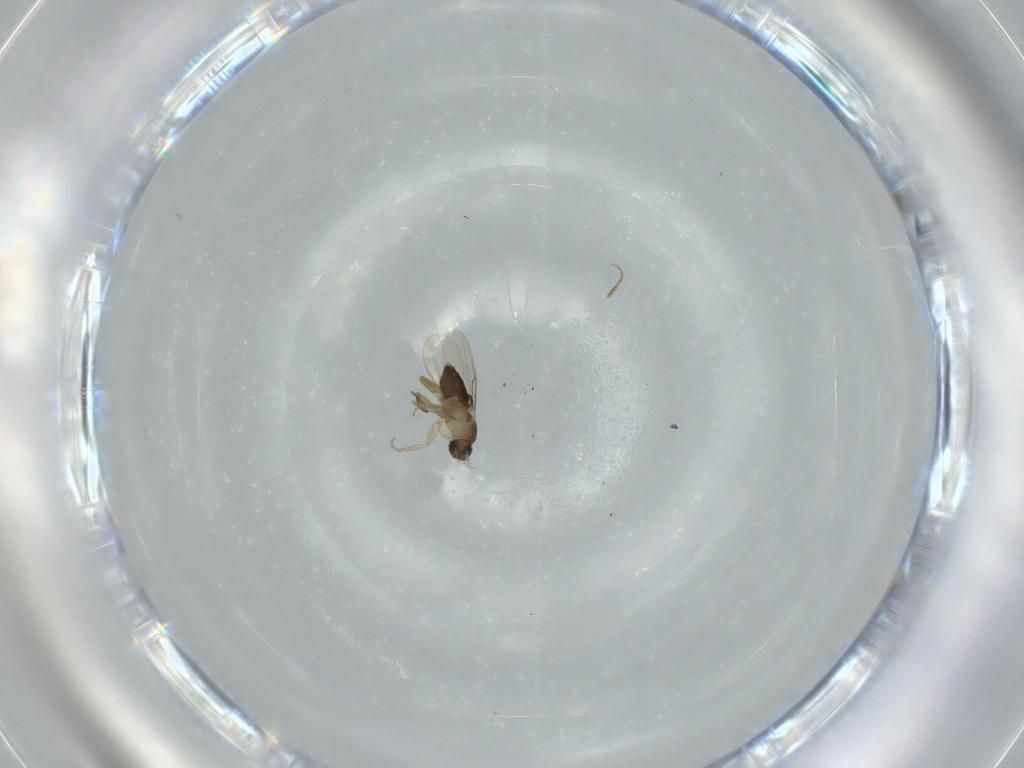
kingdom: Animalia
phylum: Arthropoda
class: Insecta
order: Diptera
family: Phoridae
